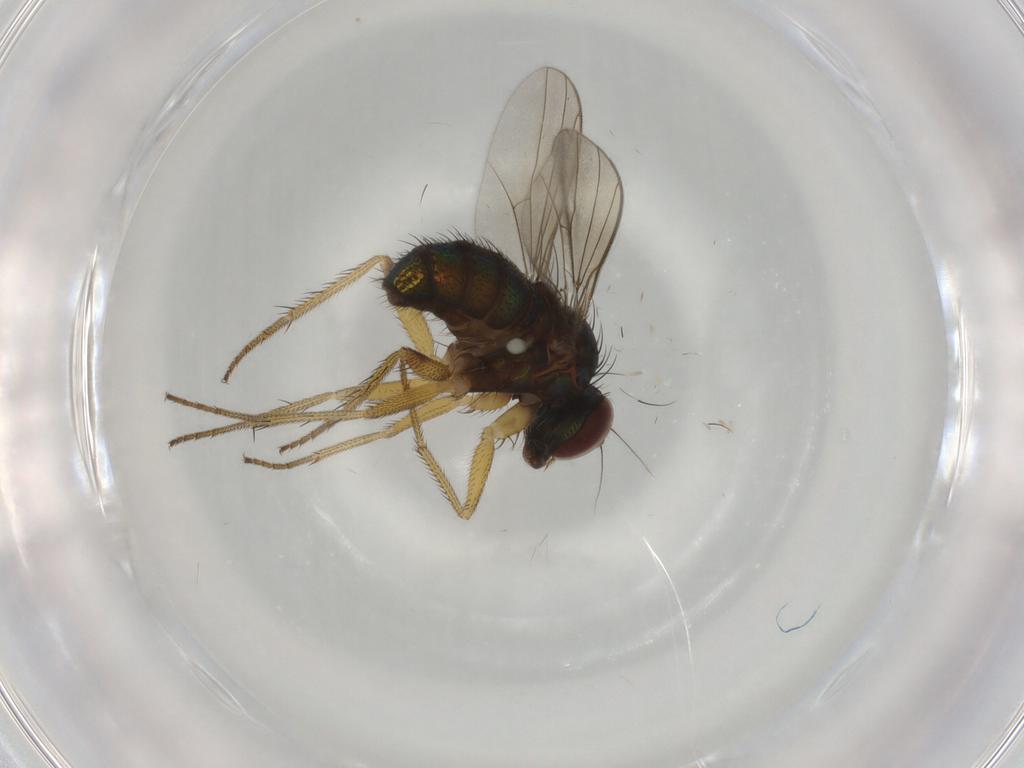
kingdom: Animalia
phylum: Arthropoda
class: Insecta
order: Diptera
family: Dolichopodidae
